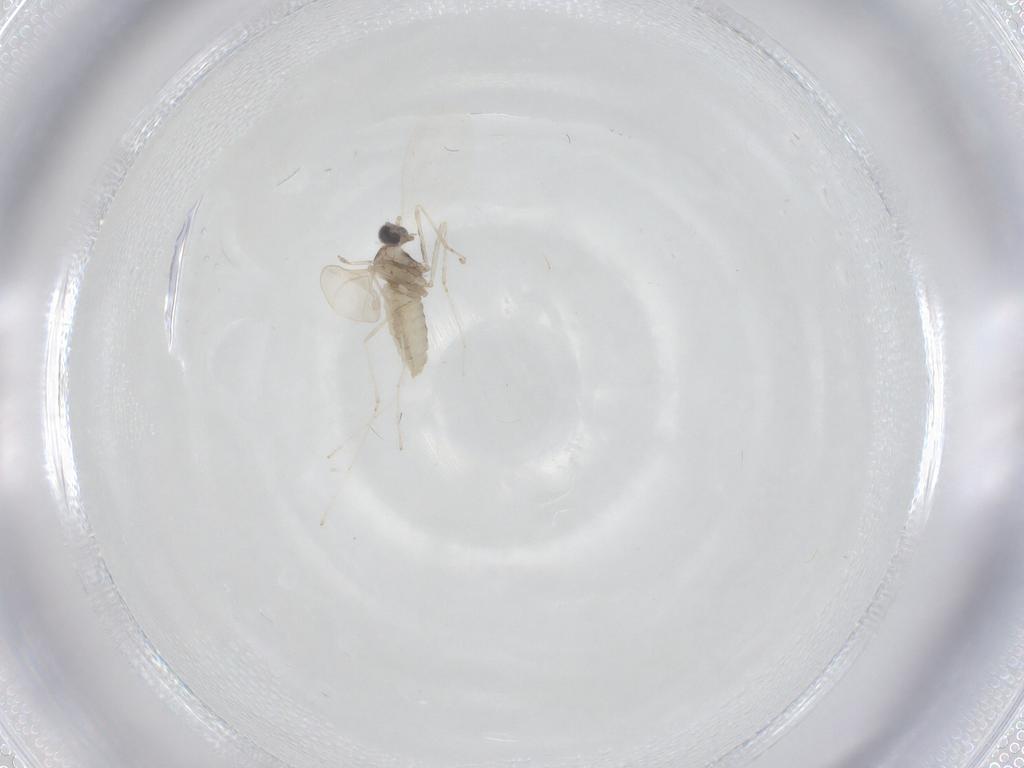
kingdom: Animalia
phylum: Arthropoda
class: Insecta
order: Diptera
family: Cecidomyiidae
